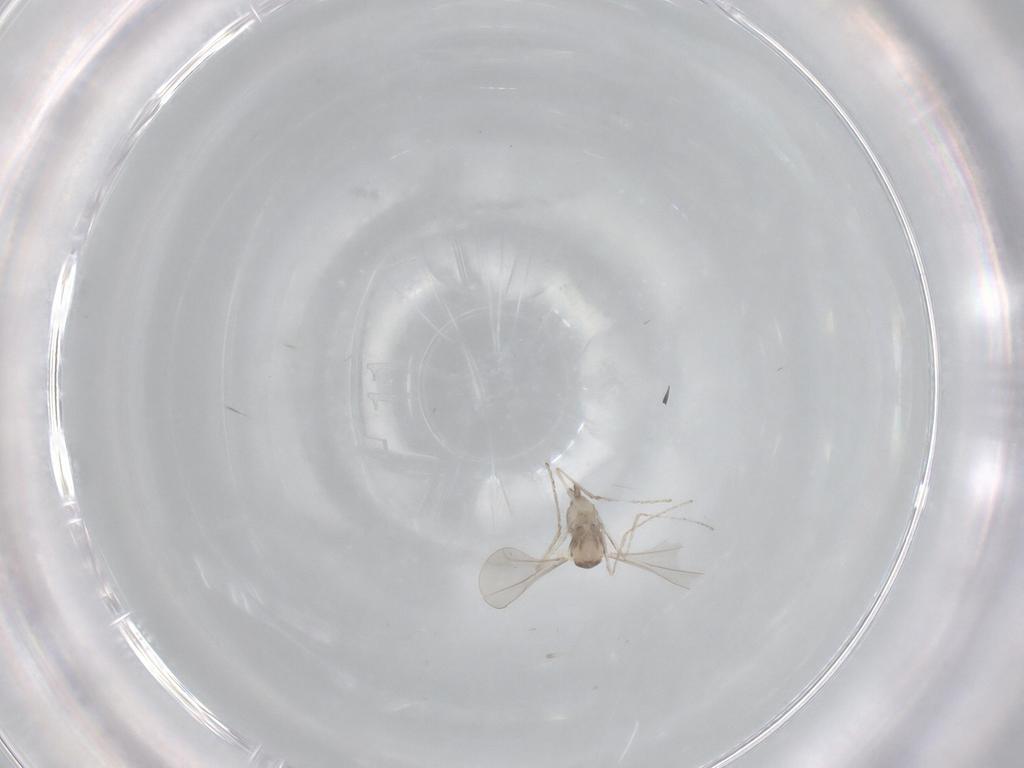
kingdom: Animalia
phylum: Arthropoda
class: Insecta
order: Diptera
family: Cecidomyiidae
